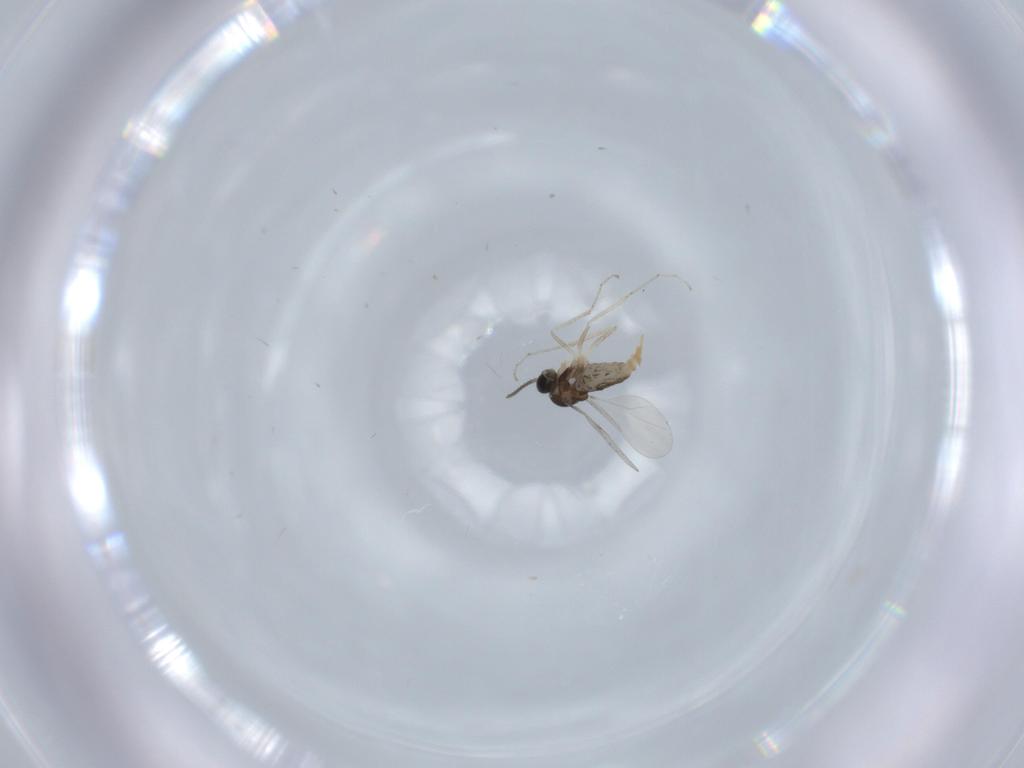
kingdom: Animalia
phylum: Arthropoda
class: Insecta
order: Diptera
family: Cecidomyiidae
